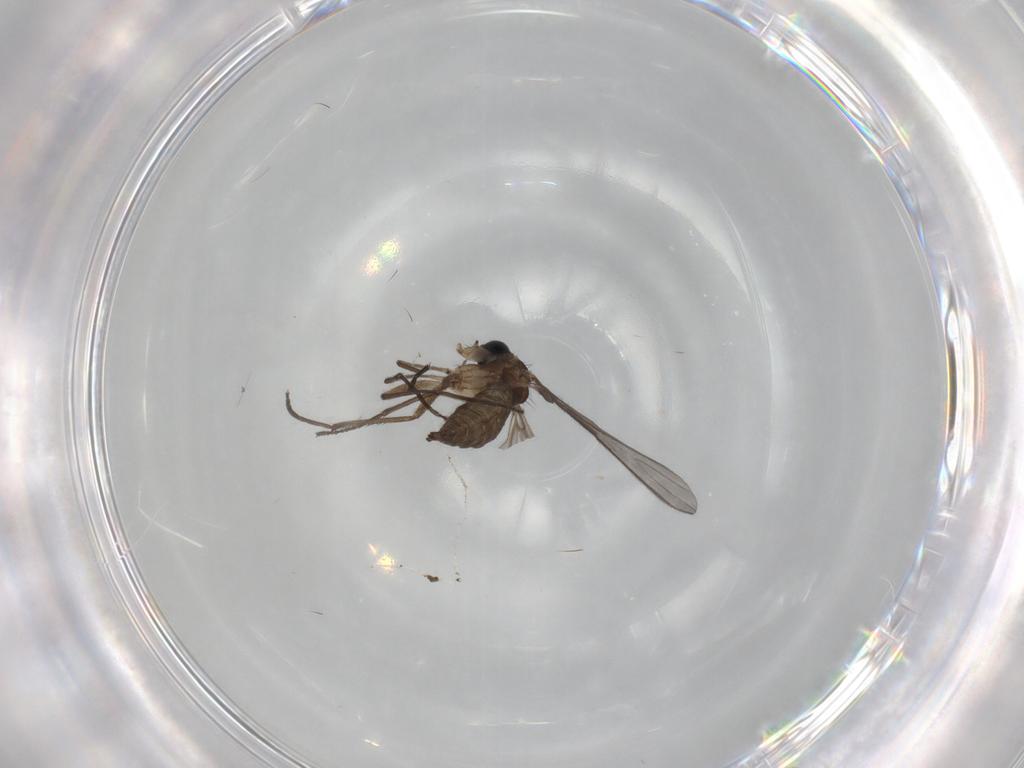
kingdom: Animalia
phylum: Arthropoda
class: Insecta
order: Diptera
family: Sciaridae
